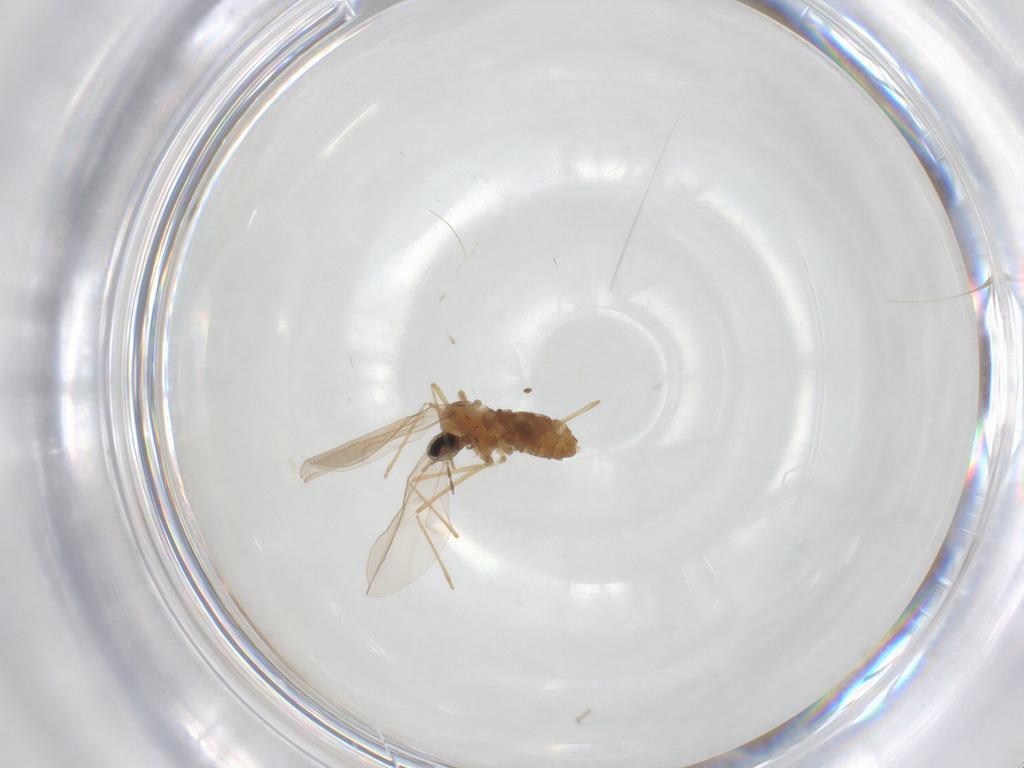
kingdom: Animalia
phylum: Arthropoda
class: Insecta
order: Diptera
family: Cecidomyiidae
